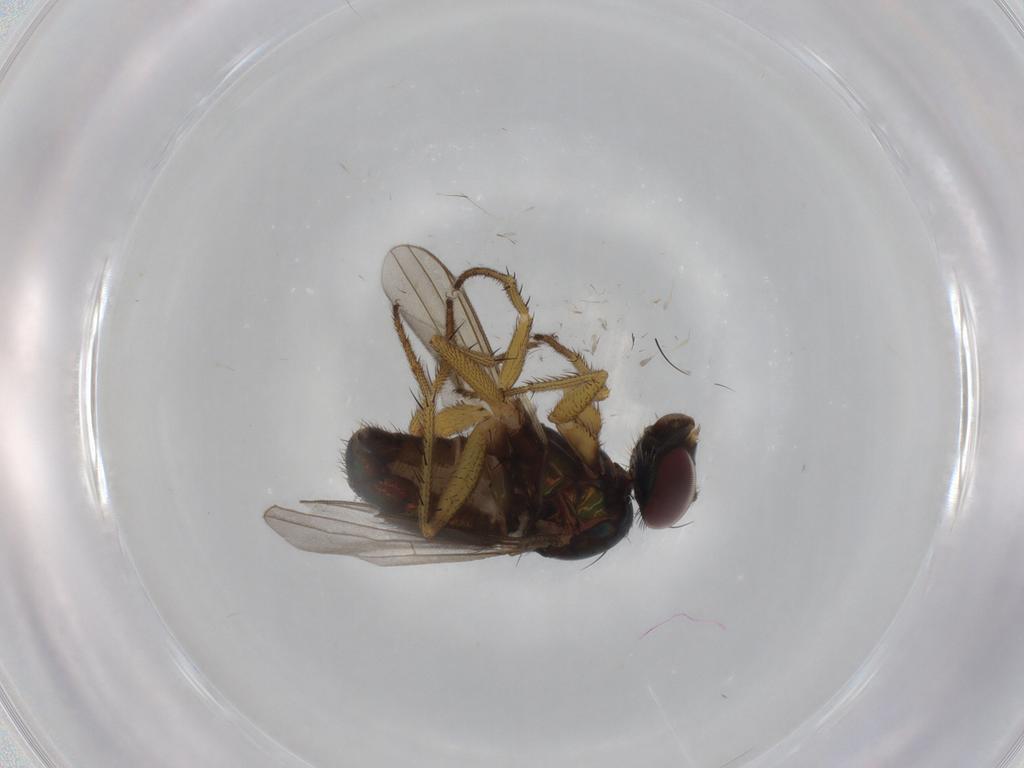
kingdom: Animalia
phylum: Arthropoda
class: Insecta
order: Diptera
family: Dolichopodidae
